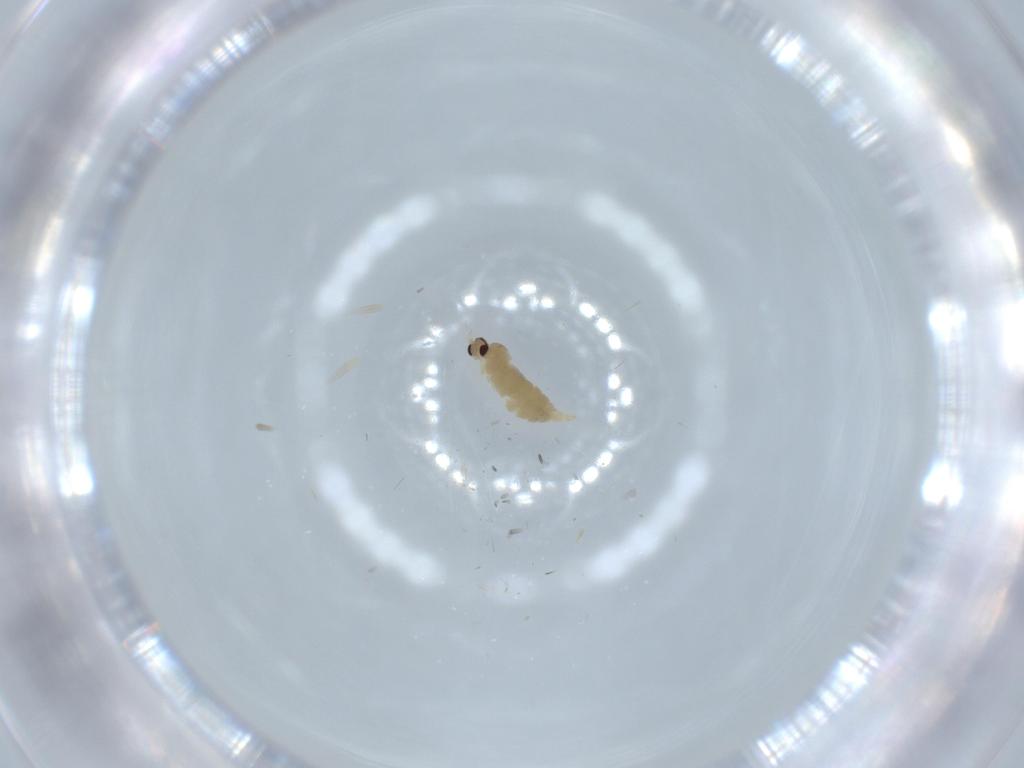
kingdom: Animalia
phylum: Arthropoda
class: Insecta
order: Diptera
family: Cecidomyiidae
